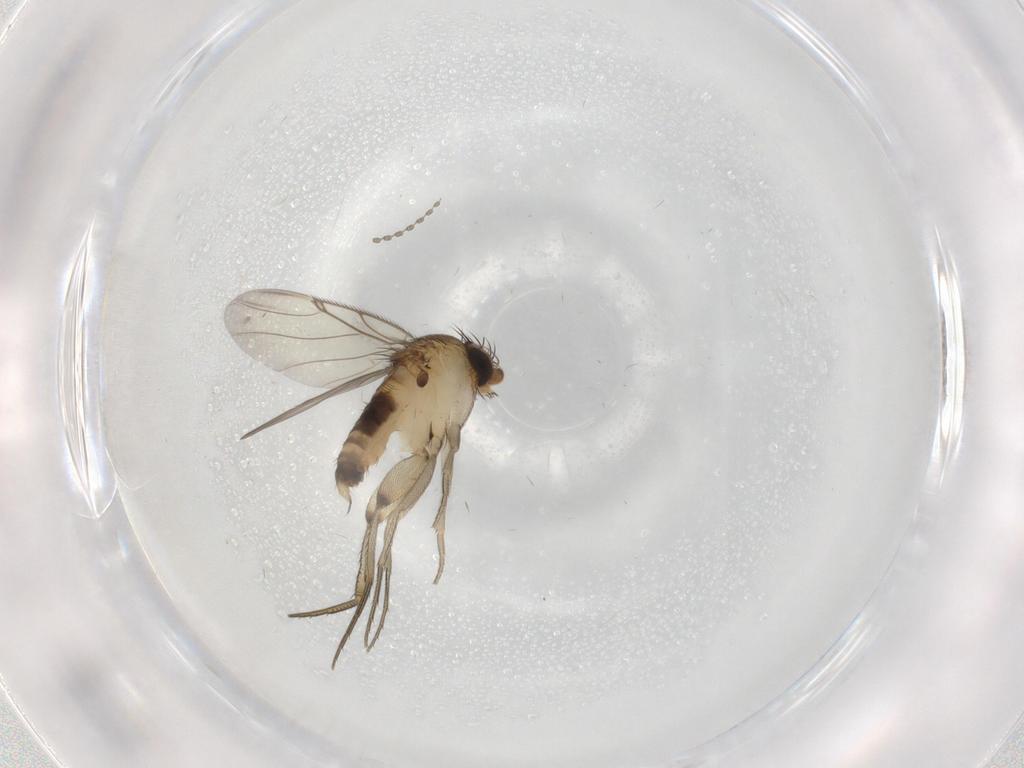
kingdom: Animalia
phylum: Arthropoda
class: Insecta
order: Diptera
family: Phoridae
